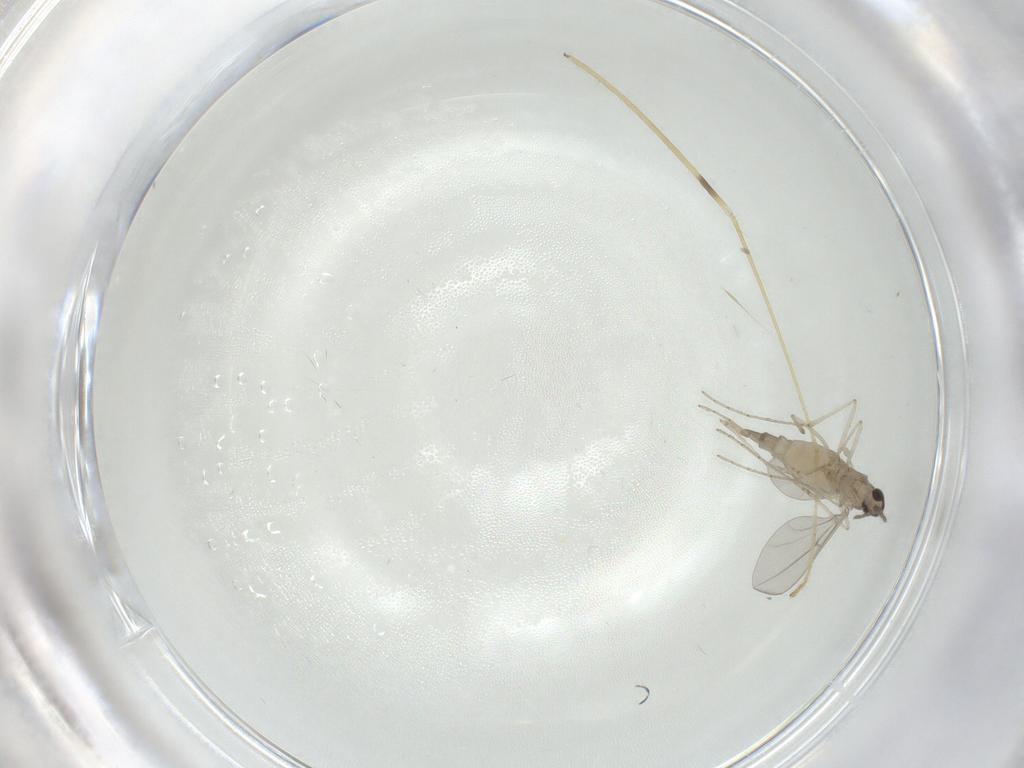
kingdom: Animalia
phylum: Arthropoda
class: Insecta
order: Diptera
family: Cecidomyiidae
